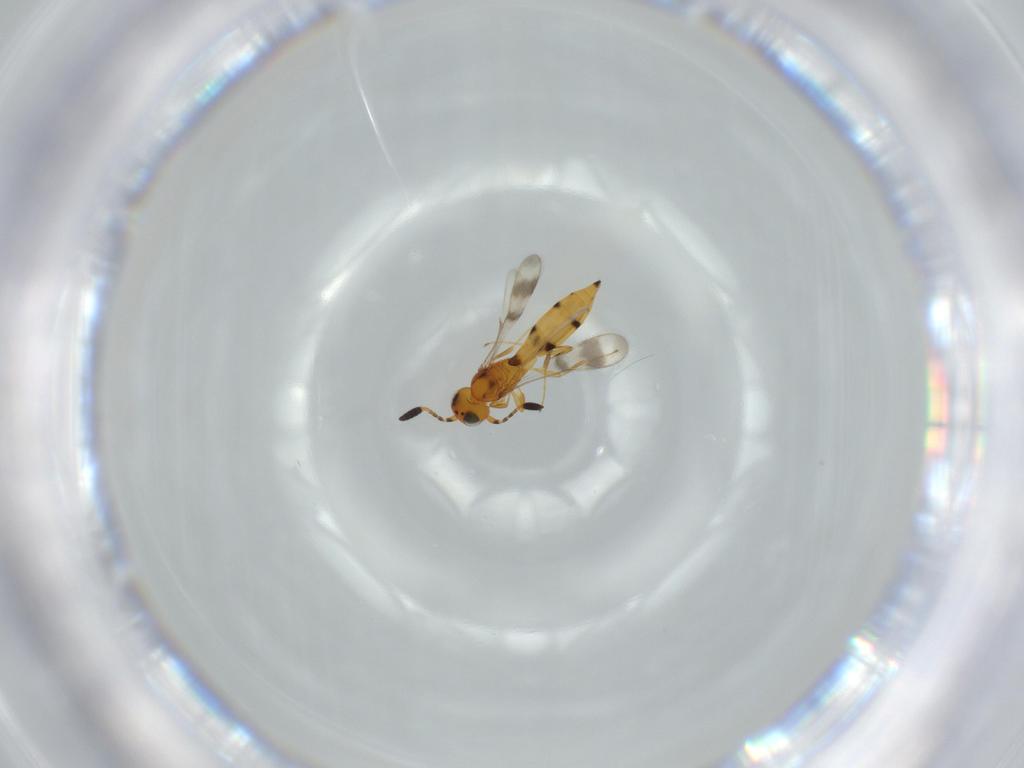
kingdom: Animalia
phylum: Arthropoda
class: Insecta
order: Hymenoptera
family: Scelionidae
